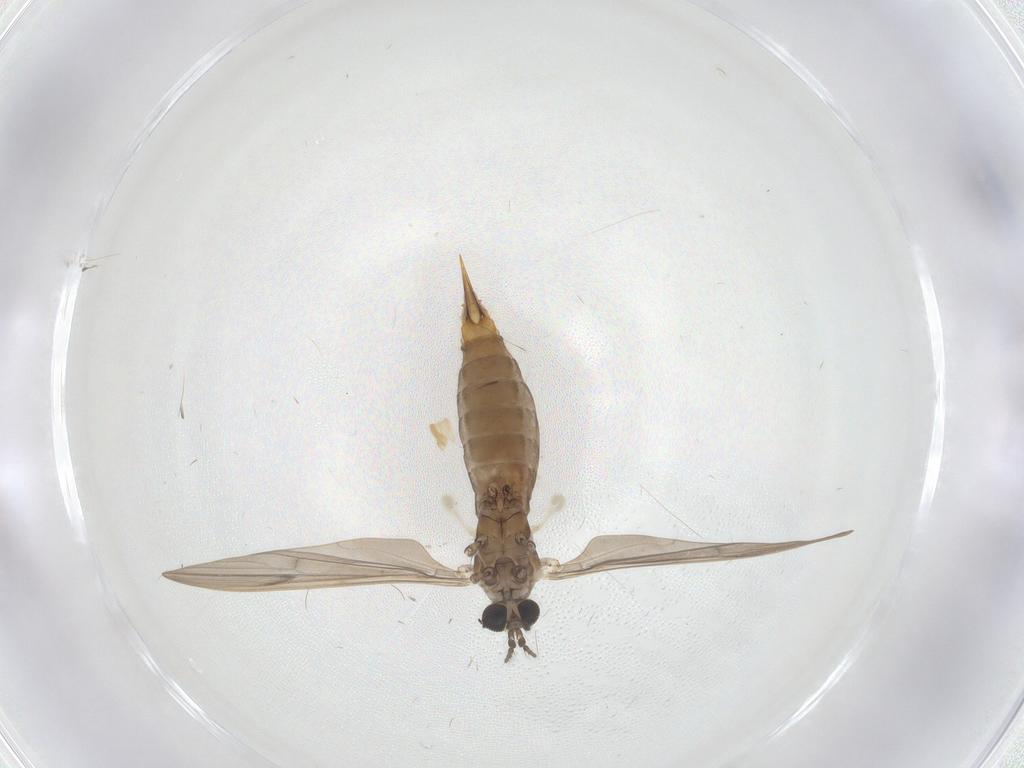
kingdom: Animalia
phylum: Arthropoda
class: Insecta
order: Diptera
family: Limoniidae
